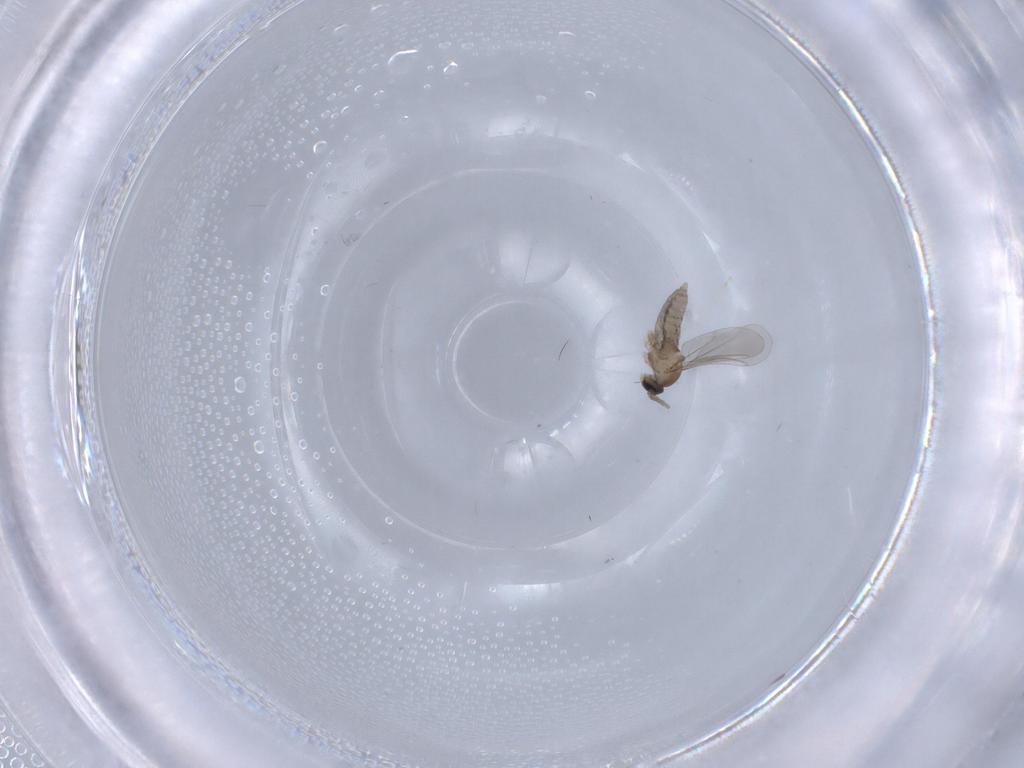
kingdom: Animalia
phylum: Arthropoda
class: Insecta
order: Diptera
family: Cecidomyiidae
